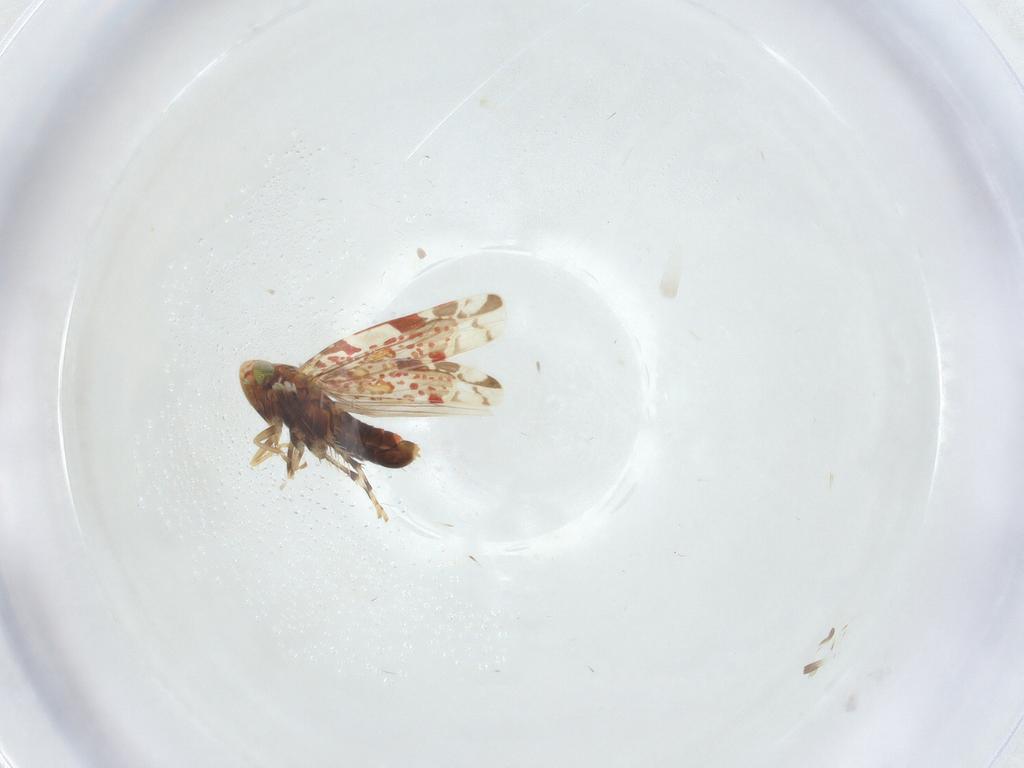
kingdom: Animalia
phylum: Arthropoda
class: Insecta
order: Hemiptera
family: Cicadellidae
